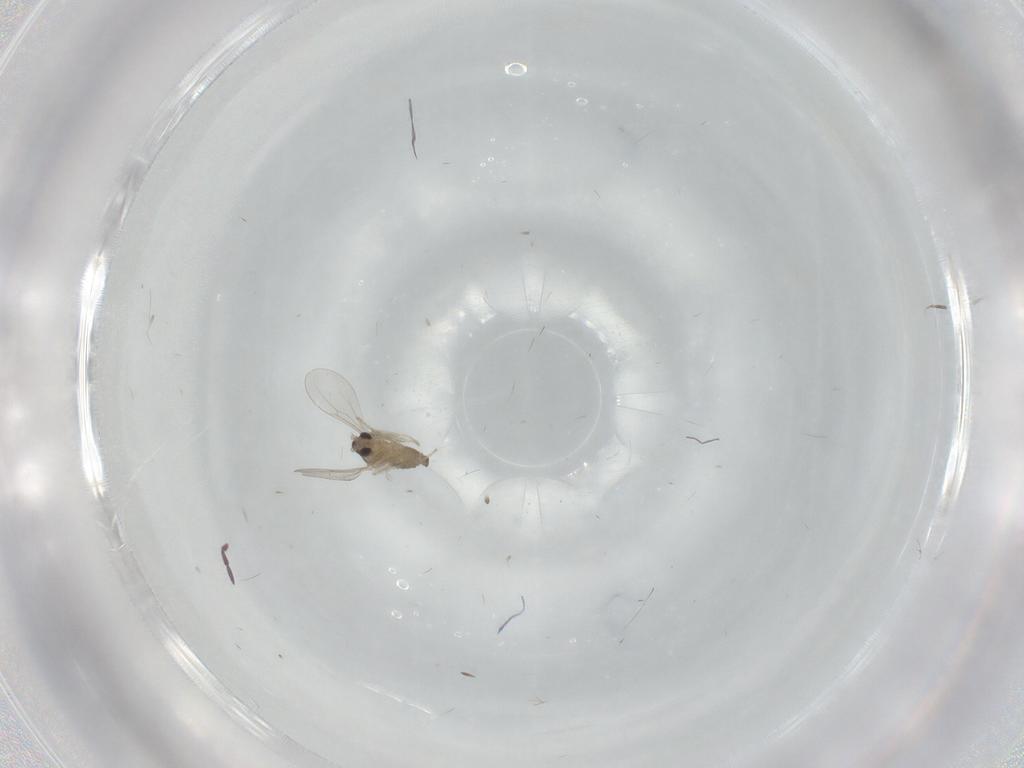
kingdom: Animalia
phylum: Arthropoda
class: Insecta
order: Diptera
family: Cecidomyiidae
